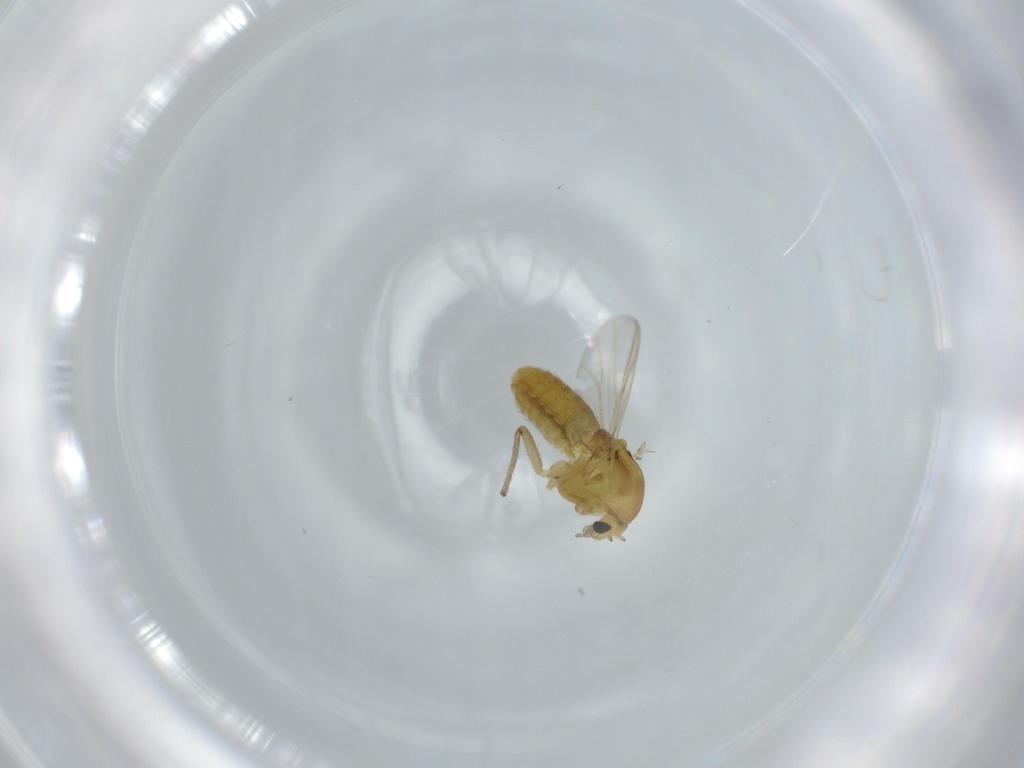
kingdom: Animalia
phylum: Arthropoda
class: Insecta
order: Diptera
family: Chironomidae
